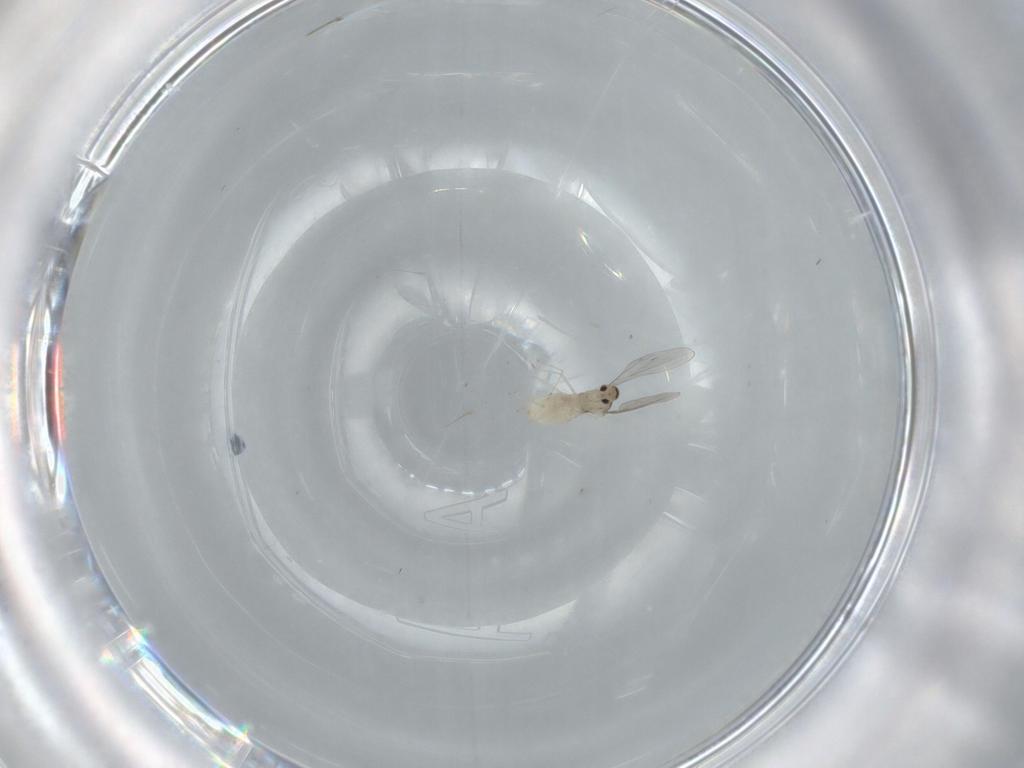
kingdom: Animalia
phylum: Arthropoda
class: Insecta
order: Diptera
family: Cecidomyiidae
